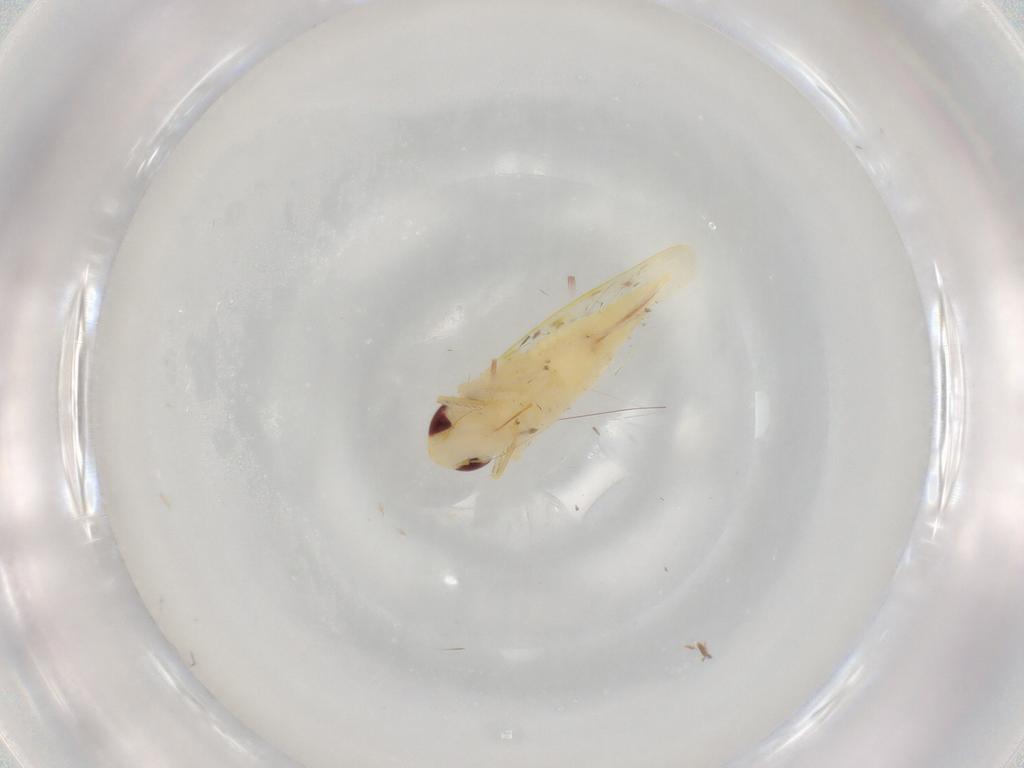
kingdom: Animalia
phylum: Arthropoda
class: Insecta
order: Hemiptera
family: Cicadellidae
